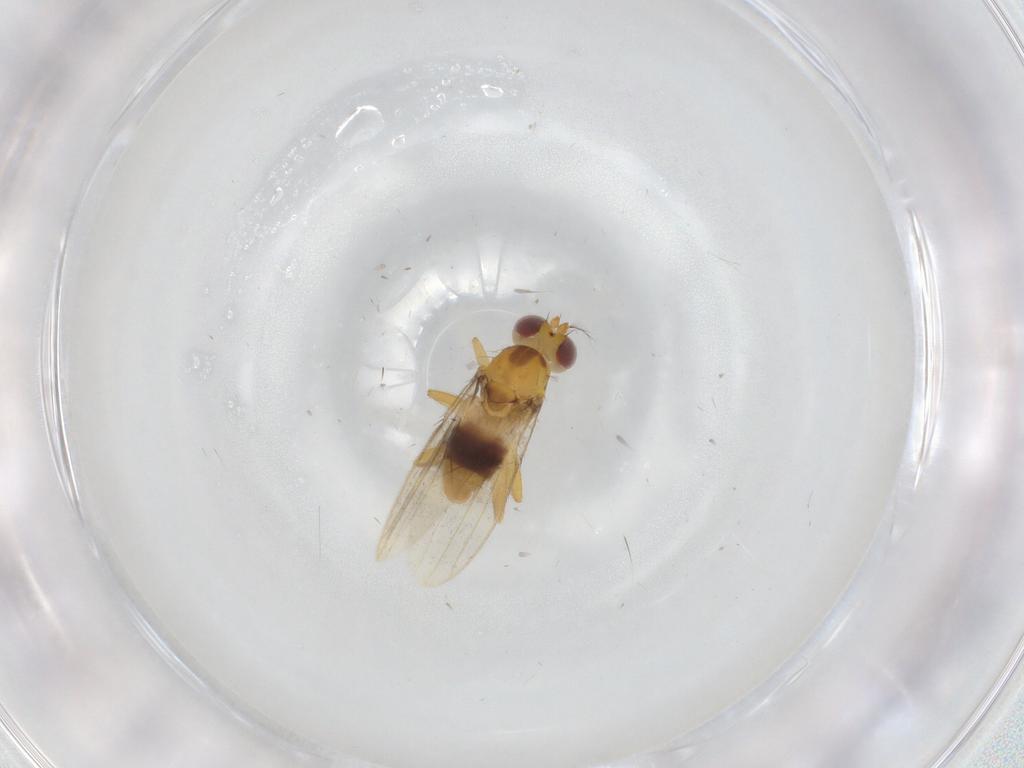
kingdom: Animalia
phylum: Arthropoda
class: Insecta
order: Diptera
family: Periscelididae
